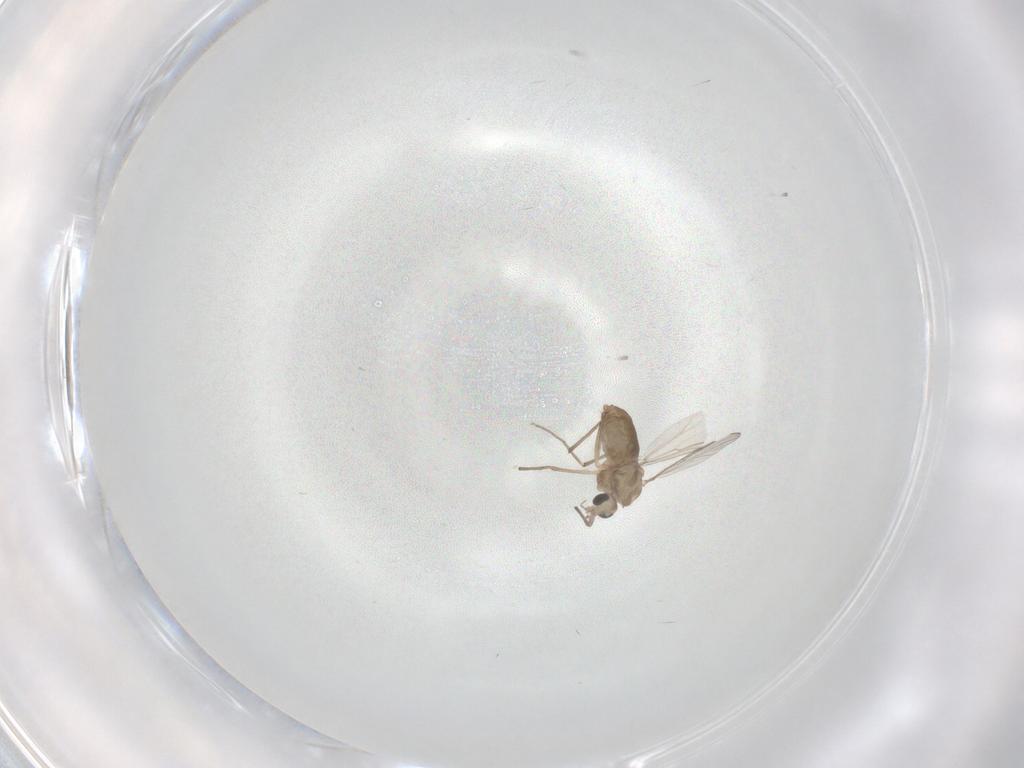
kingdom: Animalia
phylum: Arthropoda
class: Insecta
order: Diptera
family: Chironomidae
